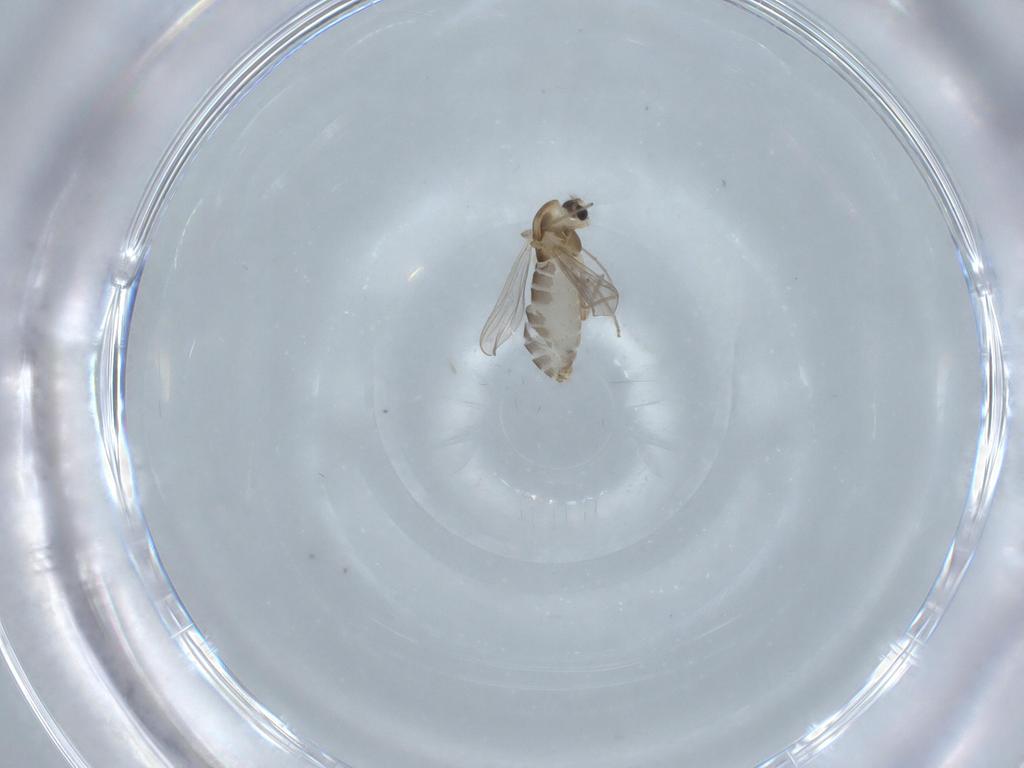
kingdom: Animalia
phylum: Arthropoda
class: Insecta
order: Diptera
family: Chironomidae
